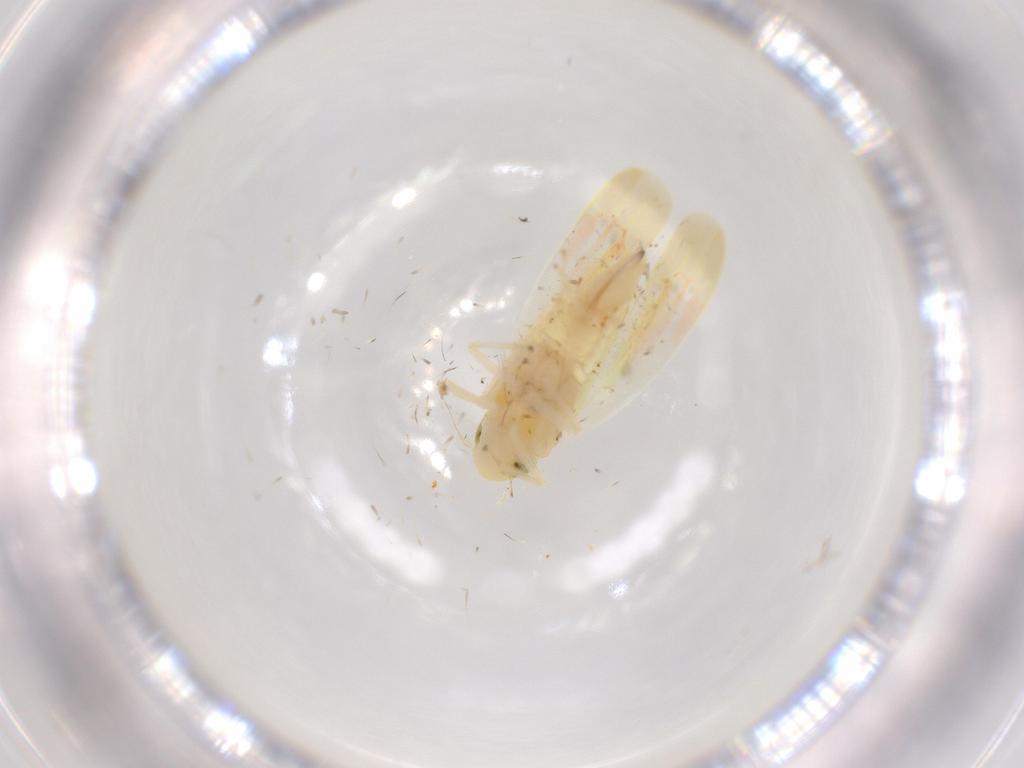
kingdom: Animalia
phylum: Arthropoda
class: Insecta
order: Hemiptera
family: Cicadellidae
